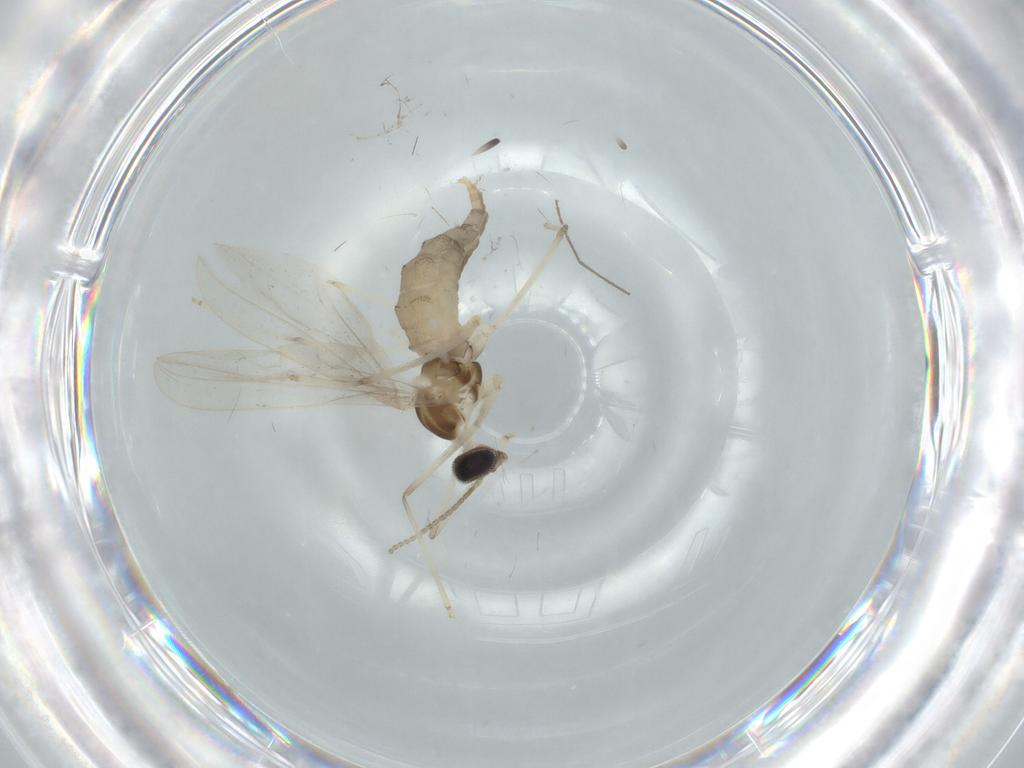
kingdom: Animalia
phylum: Arthropoda
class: Insecta
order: Diptera
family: Cecidomyiidae
